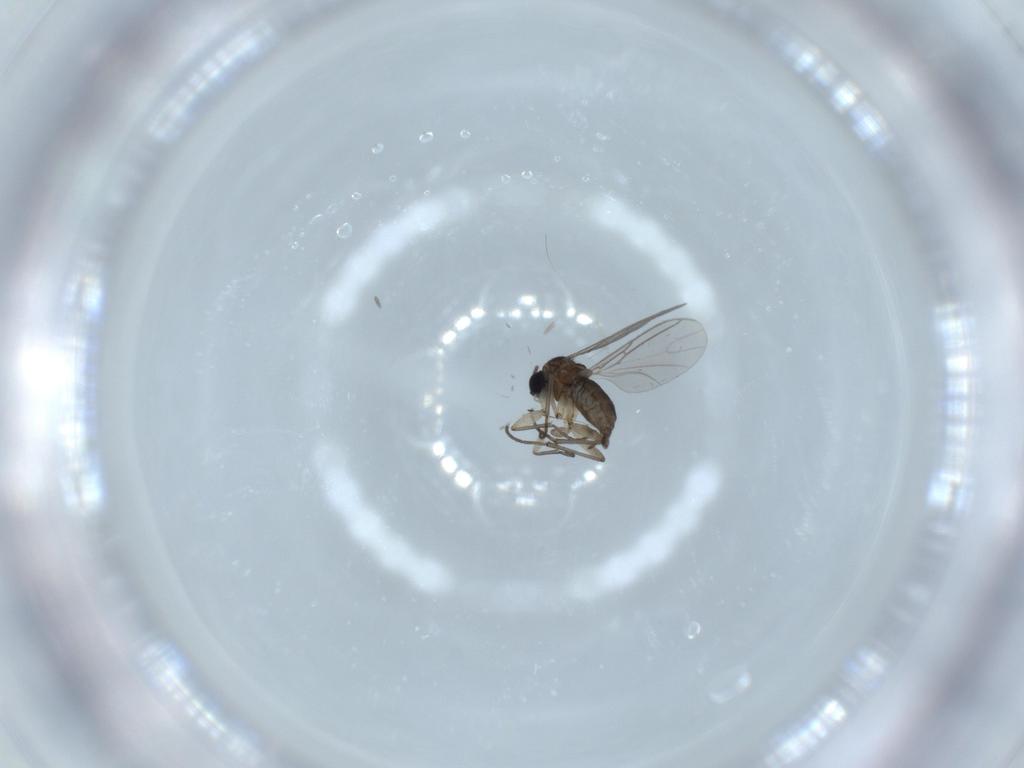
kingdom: Animalia
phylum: Arthropoda
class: Insecta
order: Diptera
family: Sciaridae
